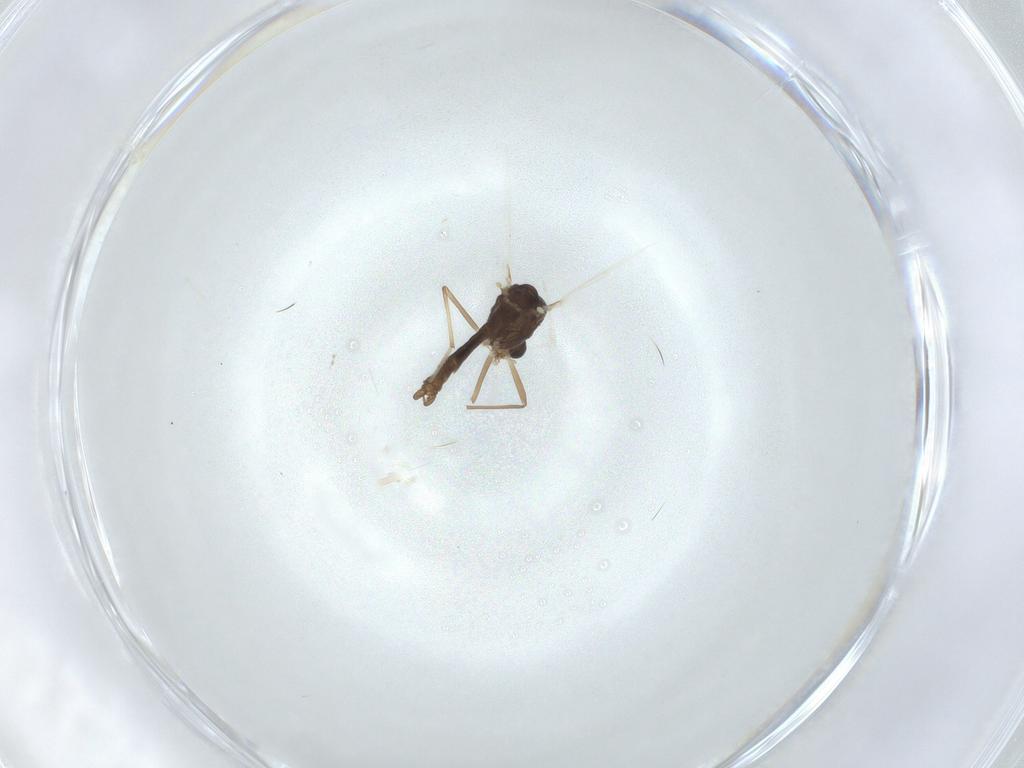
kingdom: Animalia
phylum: Arthropoda
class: Insecta
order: Diptera
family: Chironomidae
